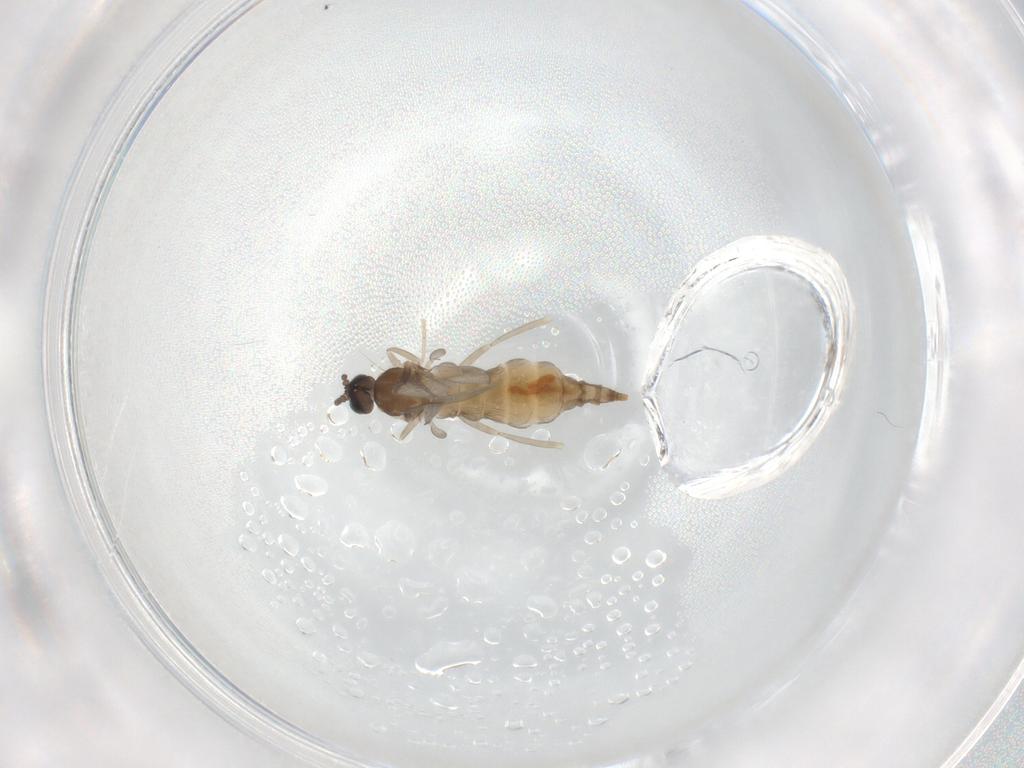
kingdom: Animalia
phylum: Arthropoda
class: Insecta
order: Diptera
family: Cecidomyiidae
